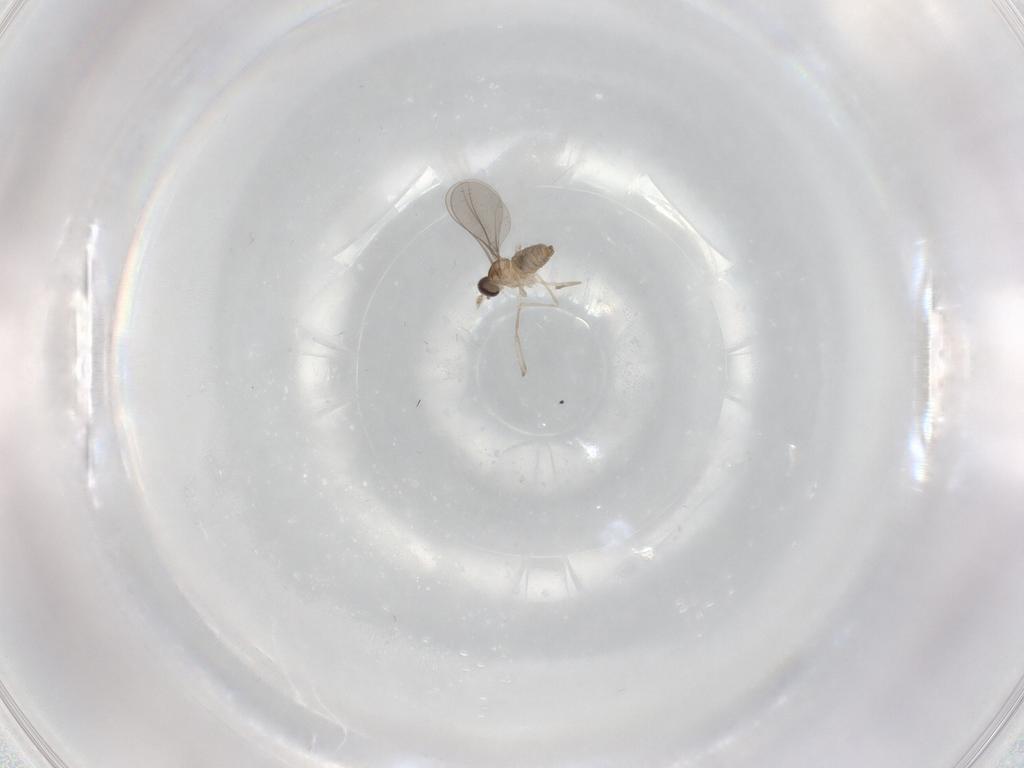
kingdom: Animalia
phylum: Arthropoda
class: Insecta
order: Diptera
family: Cecidomyiidae
